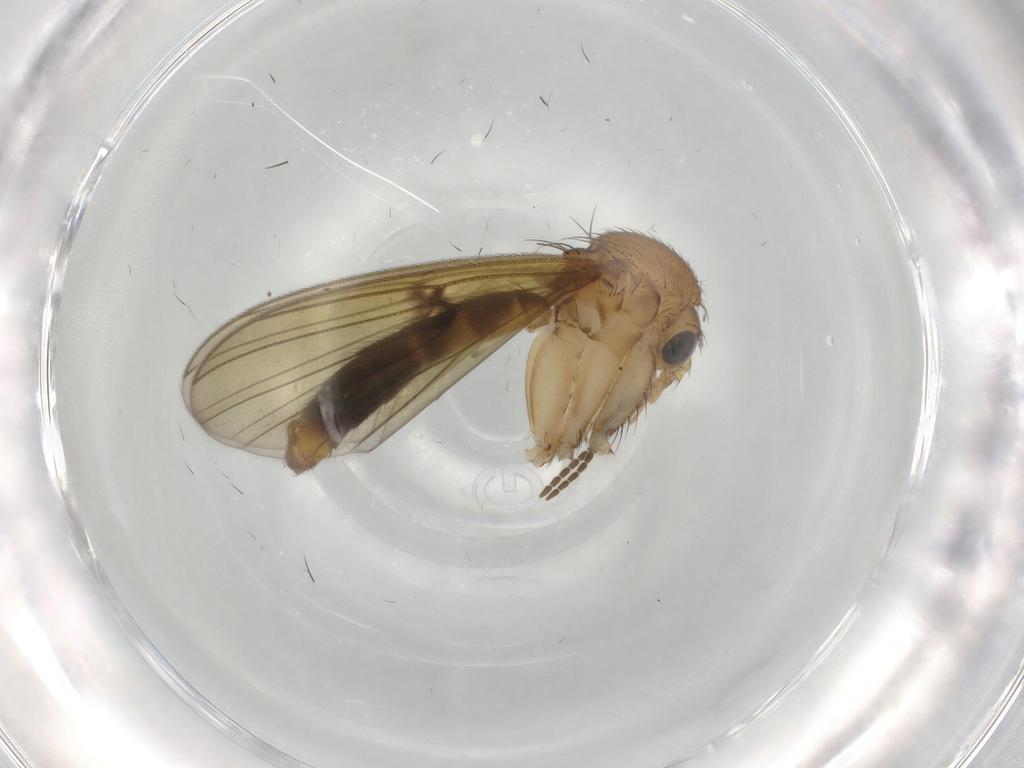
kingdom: Animalia
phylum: Arthropoda
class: Insecta
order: Diptera
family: Mycetophilidae
